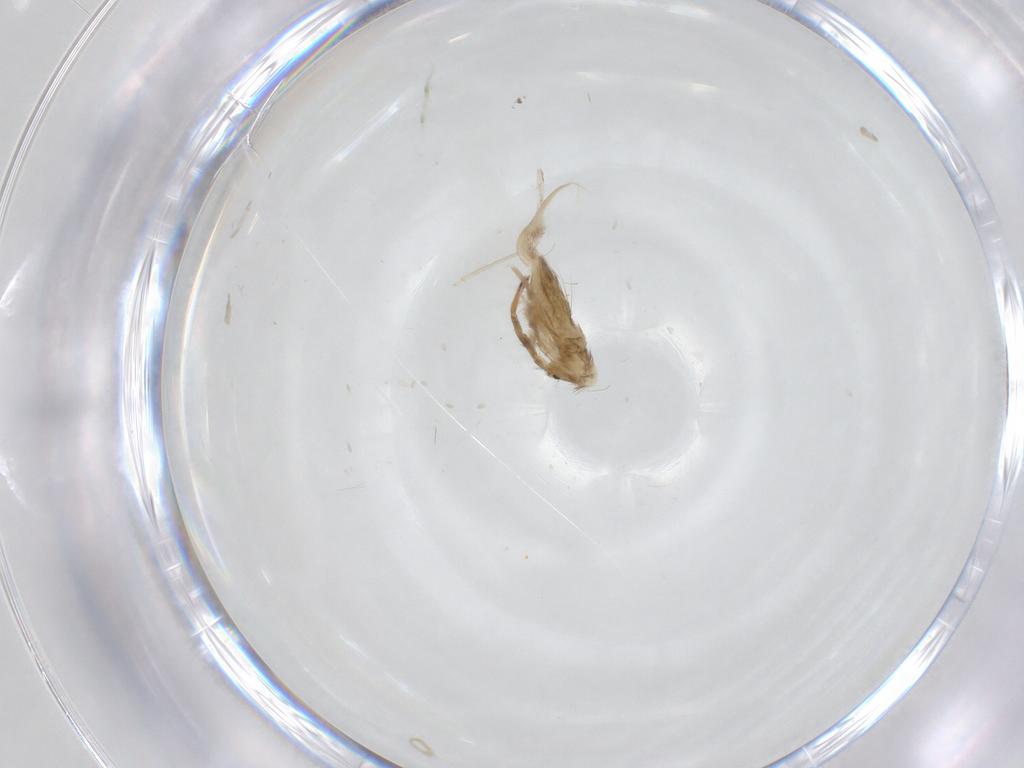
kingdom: Animalia
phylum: Arthropoda
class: Collembola
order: Entomobryomorpha
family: Entomobryidae
